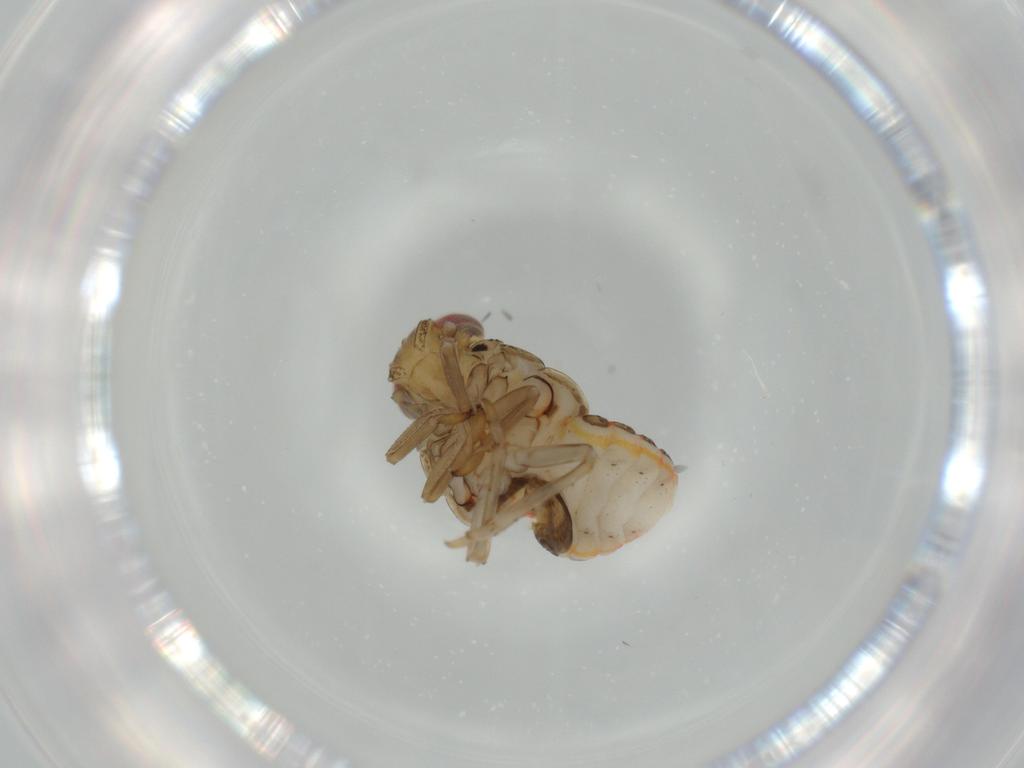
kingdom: Animalia
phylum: Arthropoda
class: Insecta
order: Hemiptera
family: Issidae
